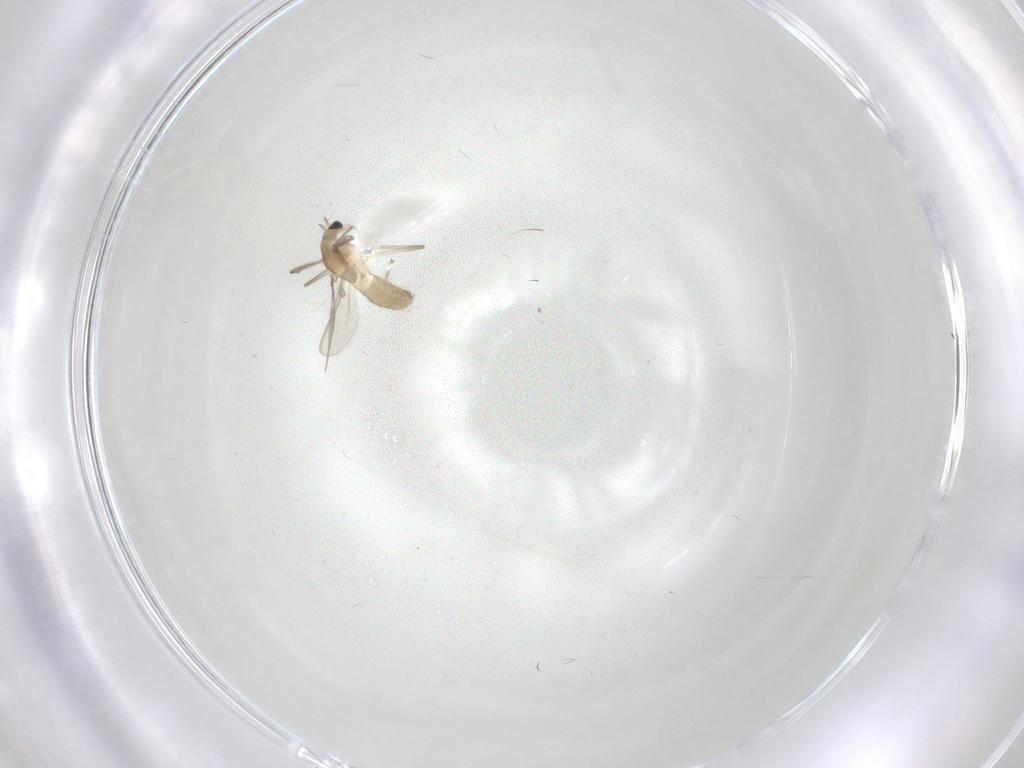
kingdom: Animalia
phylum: Arthropoda
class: Insecta
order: Diptera
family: Chironomidae
